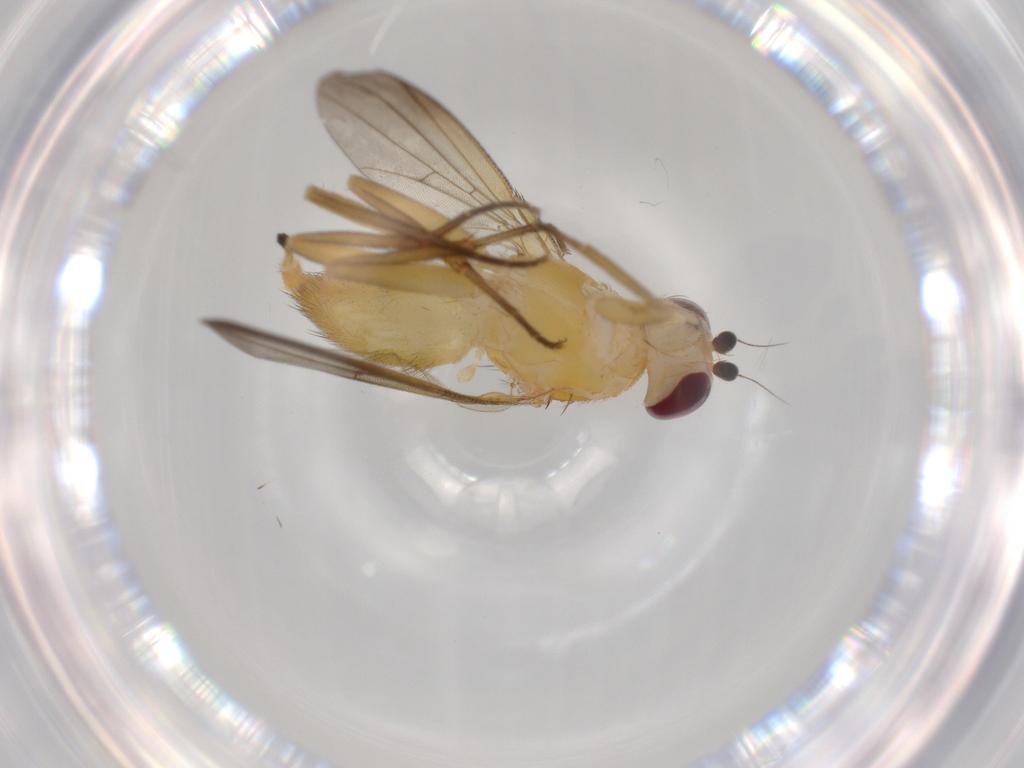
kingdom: Animalia
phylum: Arthropoda
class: Insecta
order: Diptera
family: Clusiidae
